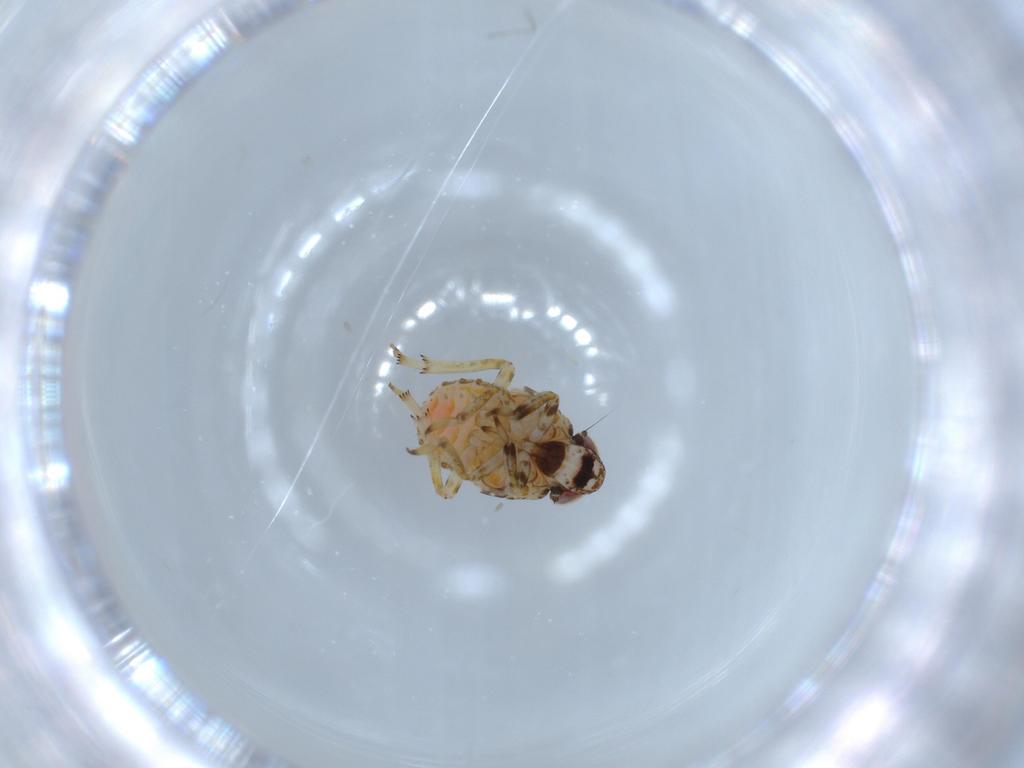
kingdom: Animalia
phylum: Arthropoda
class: Insecta
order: Hemiptera
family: Issidae
